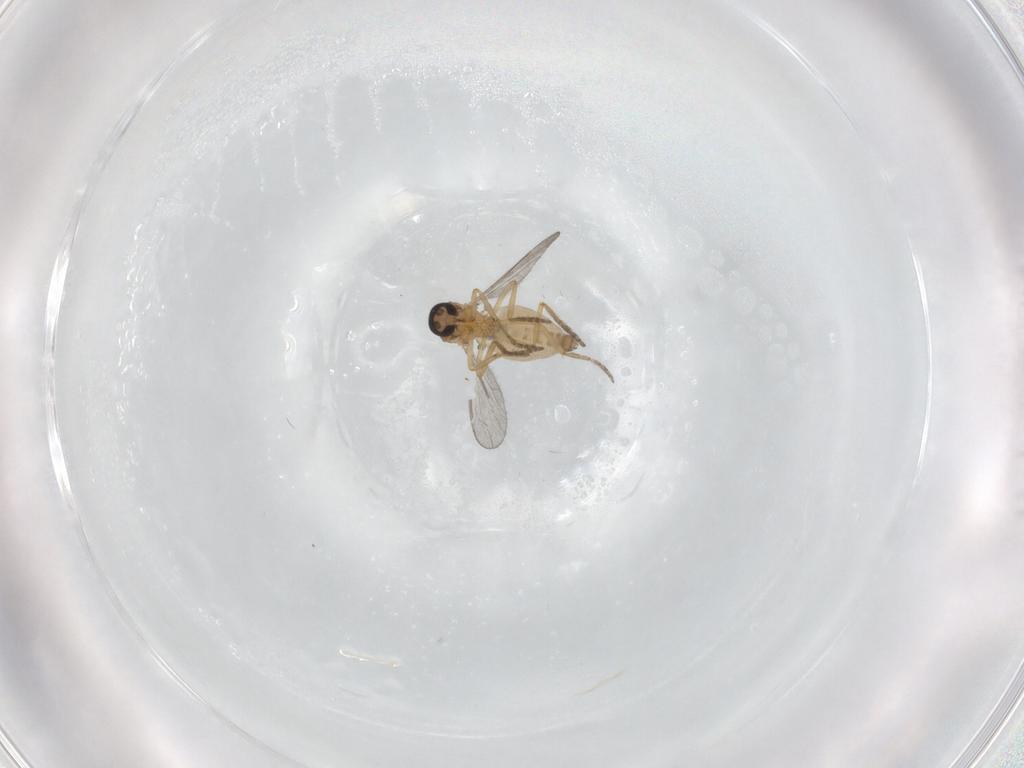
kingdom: Animalia
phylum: Arthropoda
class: Insecta
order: Diptera
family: Ceratopogonidae
